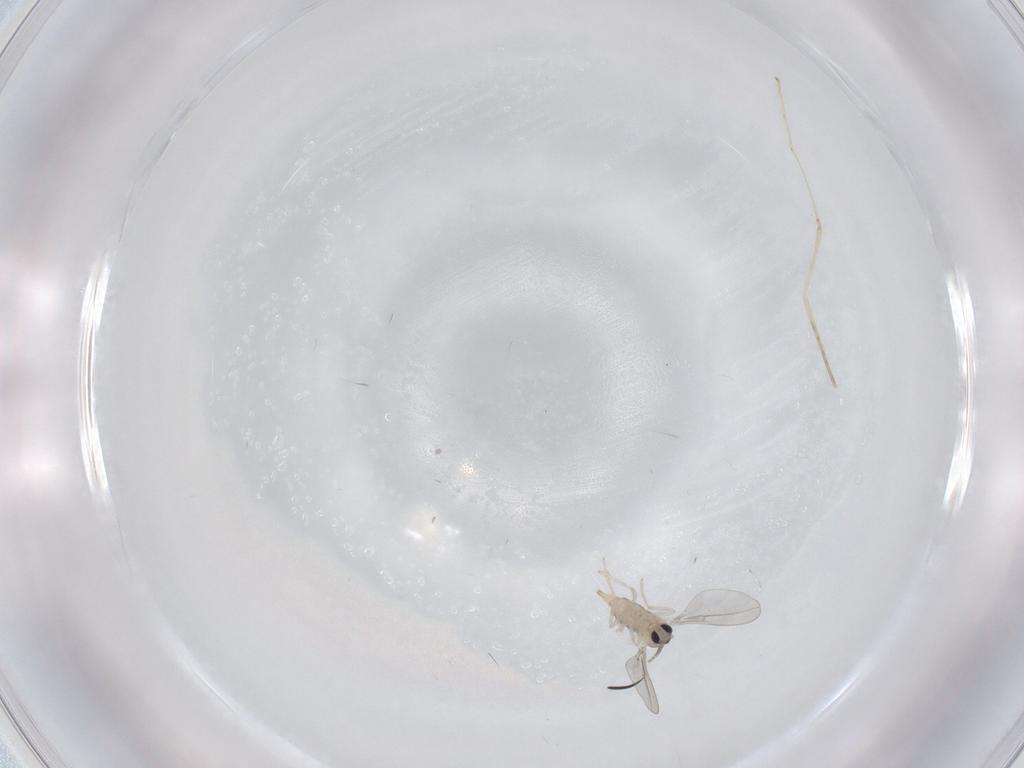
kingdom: Animalia
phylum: Arthropoda
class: Insecta
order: Diptera
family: Cecidomyiidae
